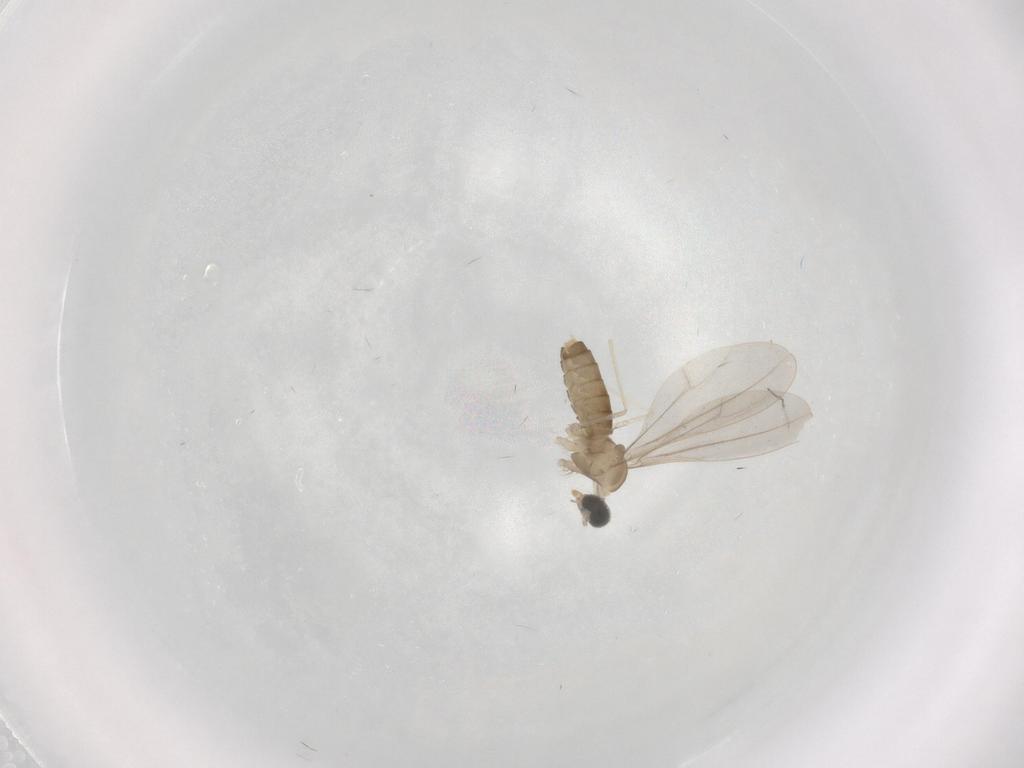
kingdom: Animalia
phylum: Arthropoda
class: Insecta
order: Diptera
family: Cecidomyiidae
